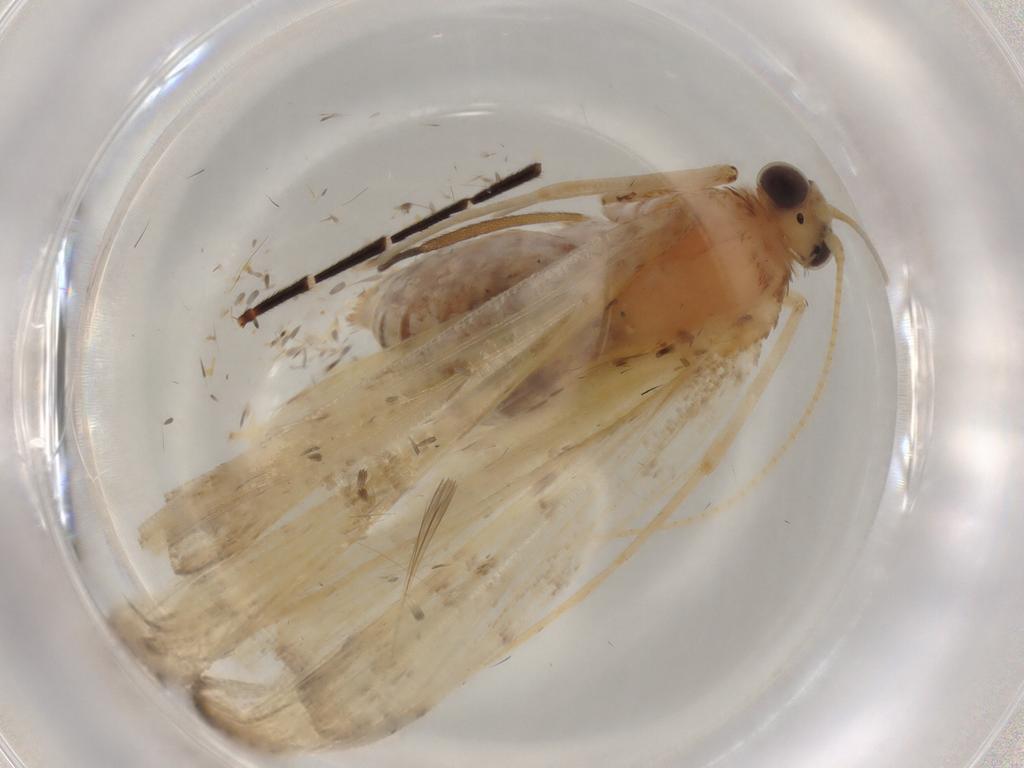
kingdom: Animalia
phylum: Arthropoda
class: Insecta
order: Lepidoptera
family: Crambidae
